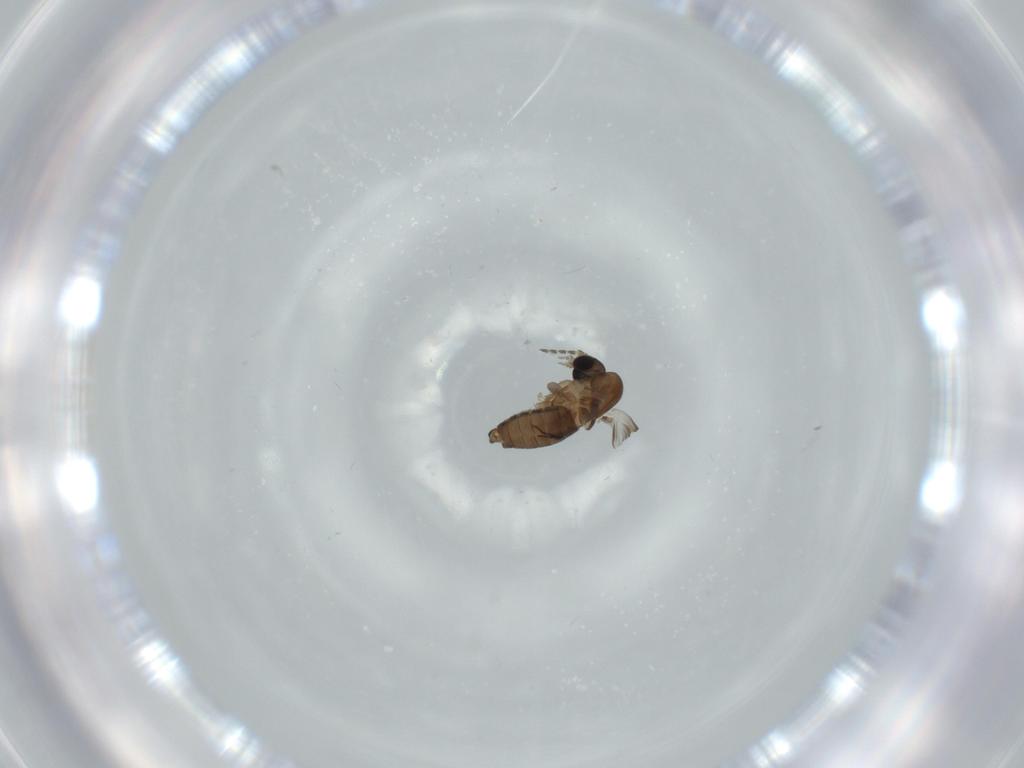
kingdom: Animalia
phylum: Arthropoda
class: Insecta
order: Diptera
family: Psychodidae
